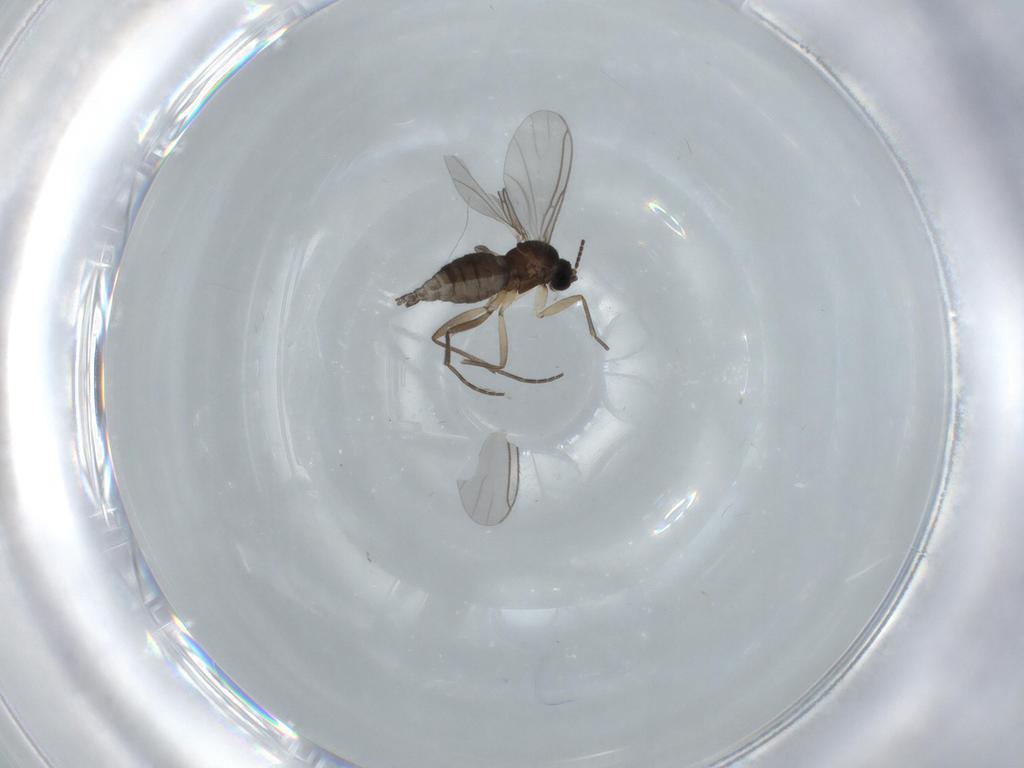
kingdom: Animalia
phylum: Arthropoda
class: Insecta
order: Diptera
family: Sciaridae
